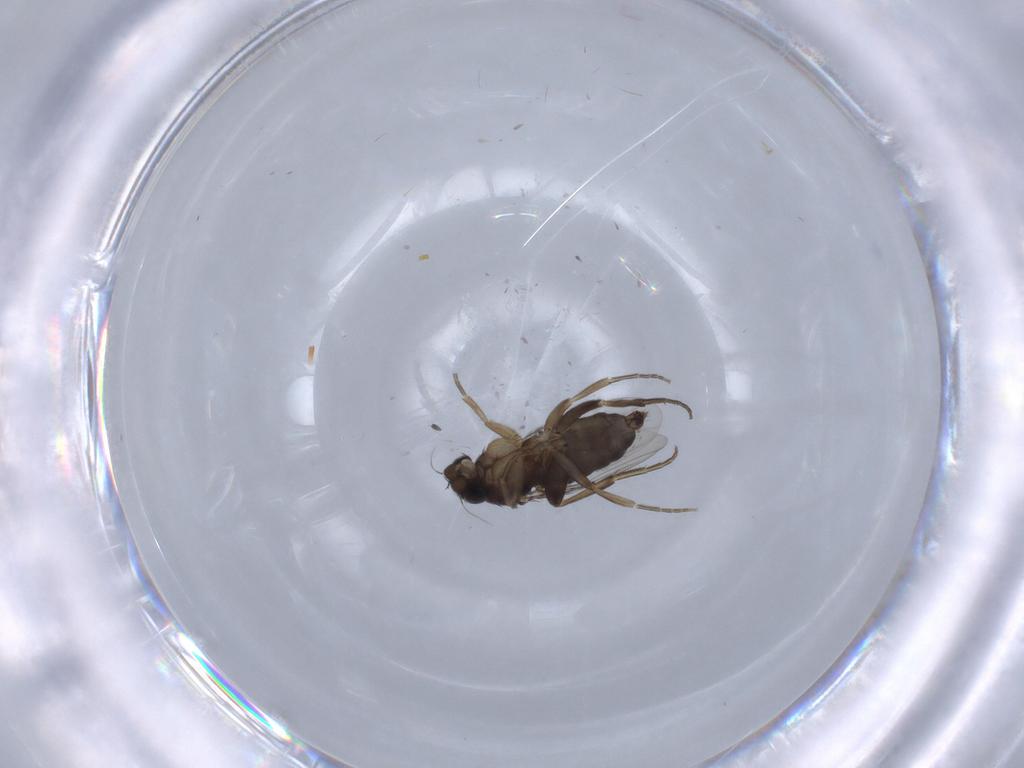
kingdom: Animalia
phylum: Arthropoda
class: Insecta
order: Diptera
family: Phoridae
